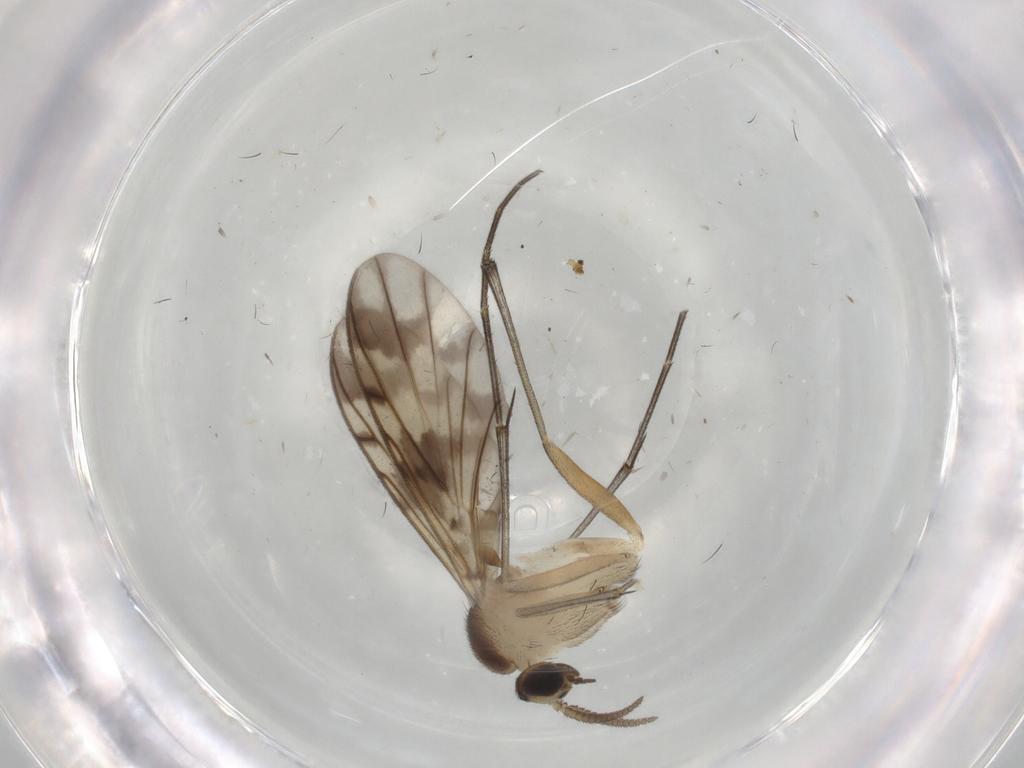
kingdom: Animalia
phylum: Arthropoda
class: Insecta
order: Diptera
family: Keroplatidae
